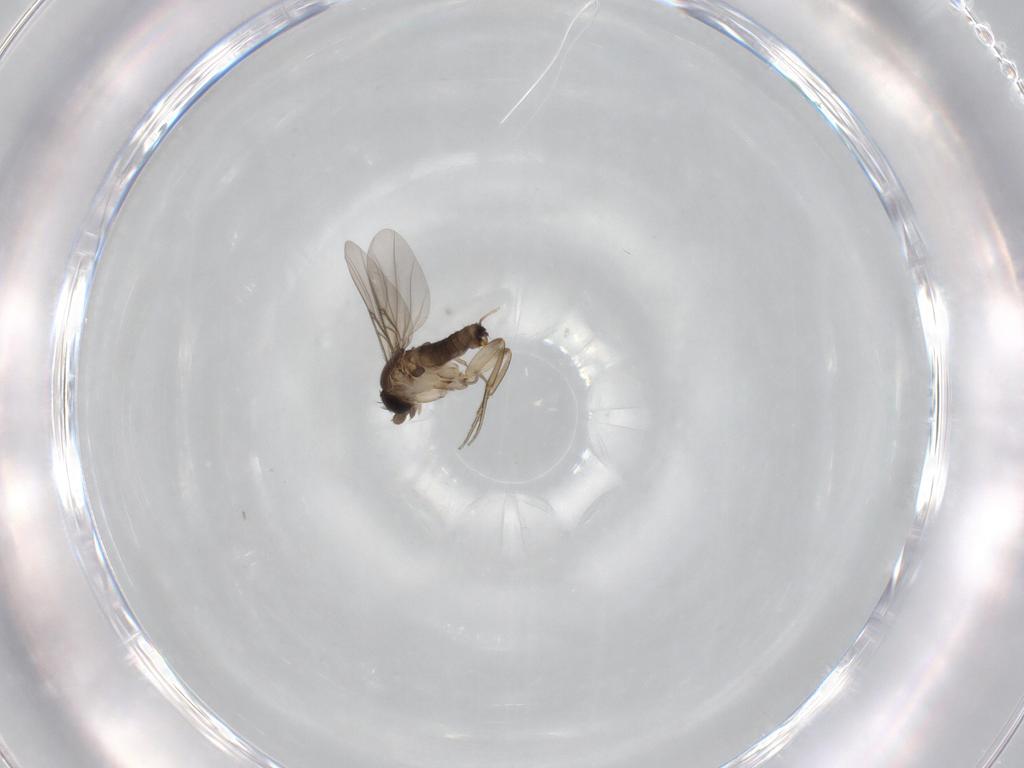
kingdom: Animalia
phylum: Arthropoda
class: Insecta
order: Diptera
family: Phoridae
